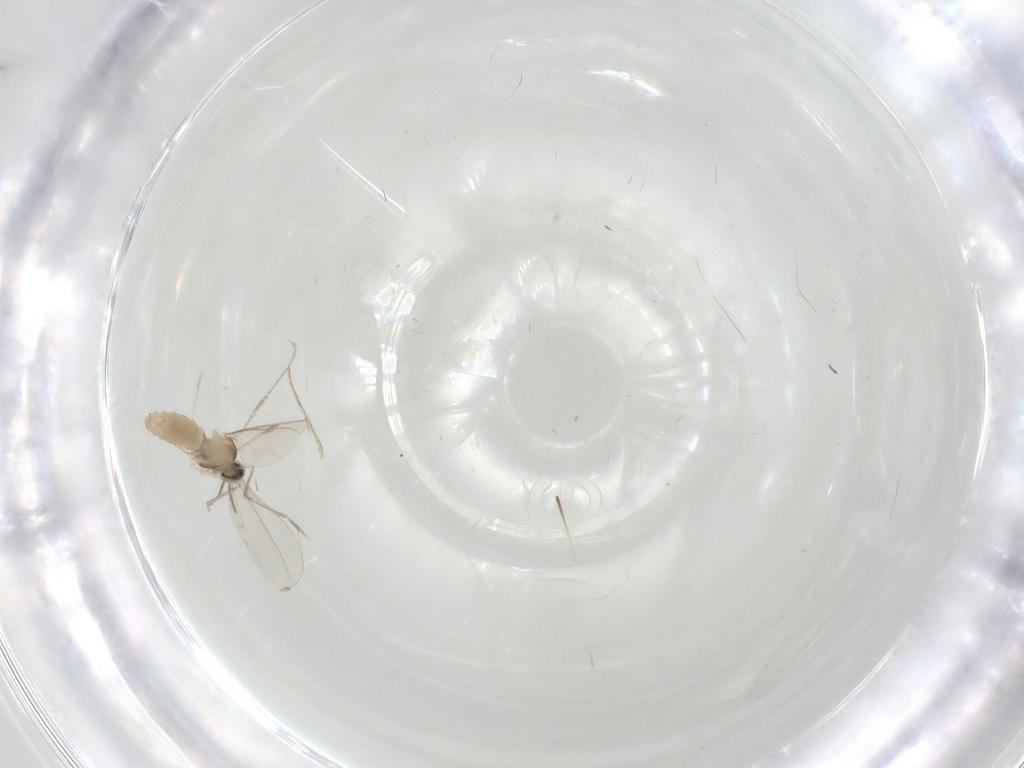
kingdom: Animalia
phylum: Arthropoda
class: Insecta
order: Diptera
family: Cecidomyiidae
